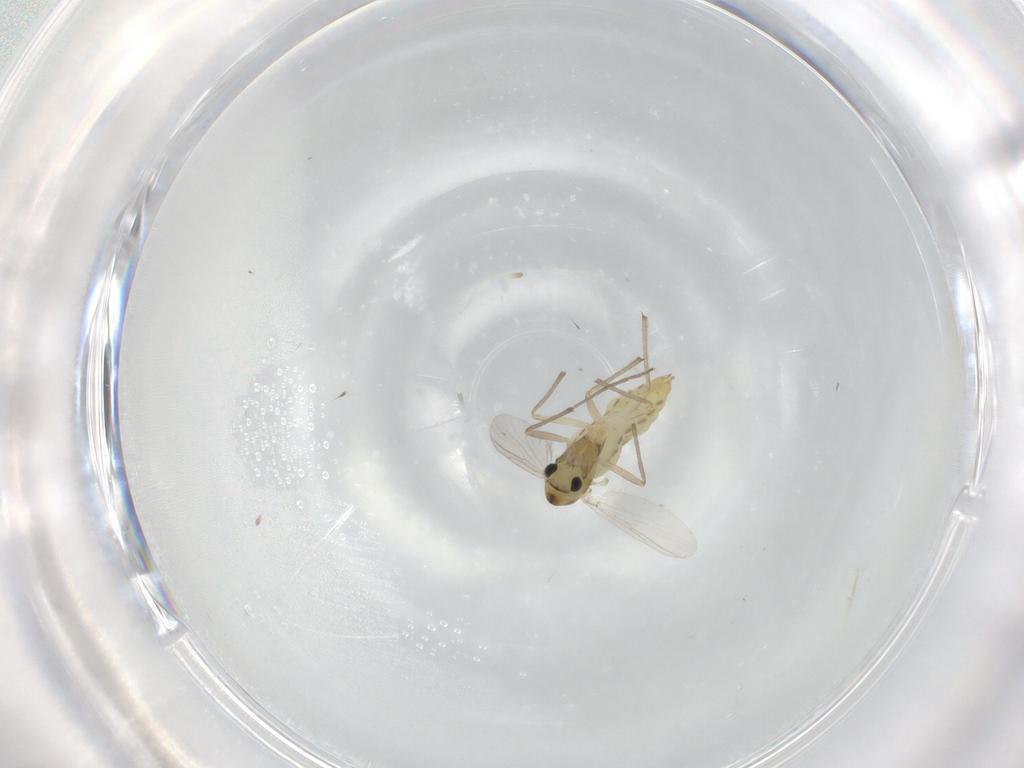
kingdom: Animalia
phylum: Arthropoda
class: Insecta
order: Diptera
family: Chironomidae
